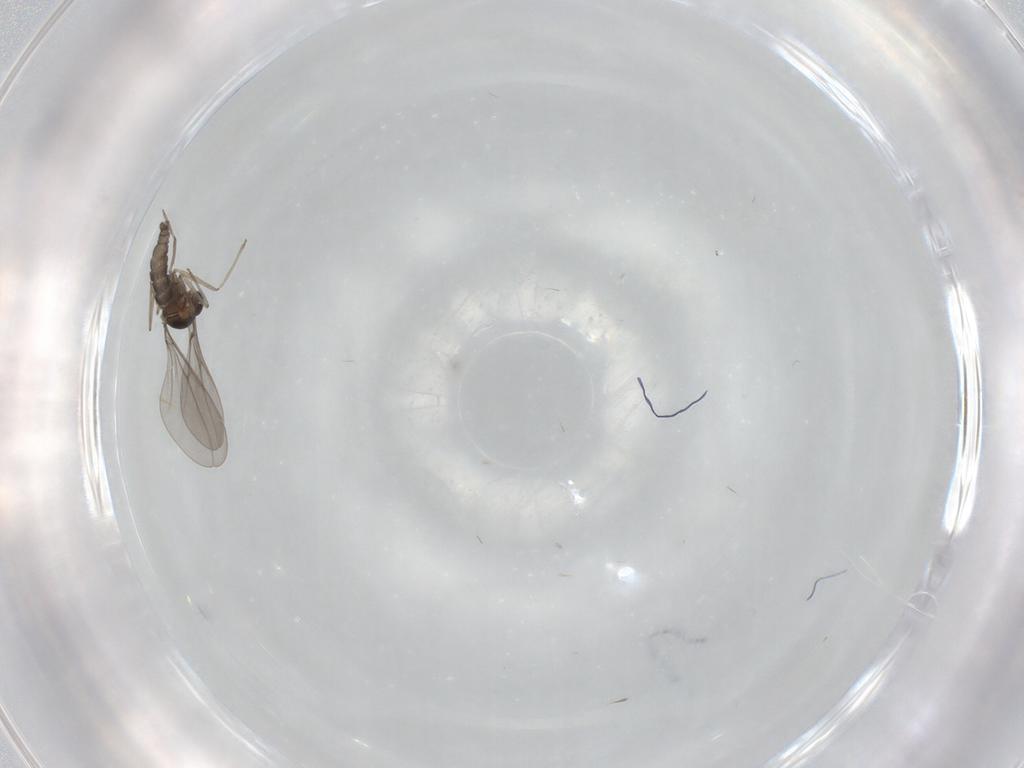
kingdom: Animalia
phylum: Arthropoda
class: Insecta
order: Diptera
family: Cecidomyiidae
